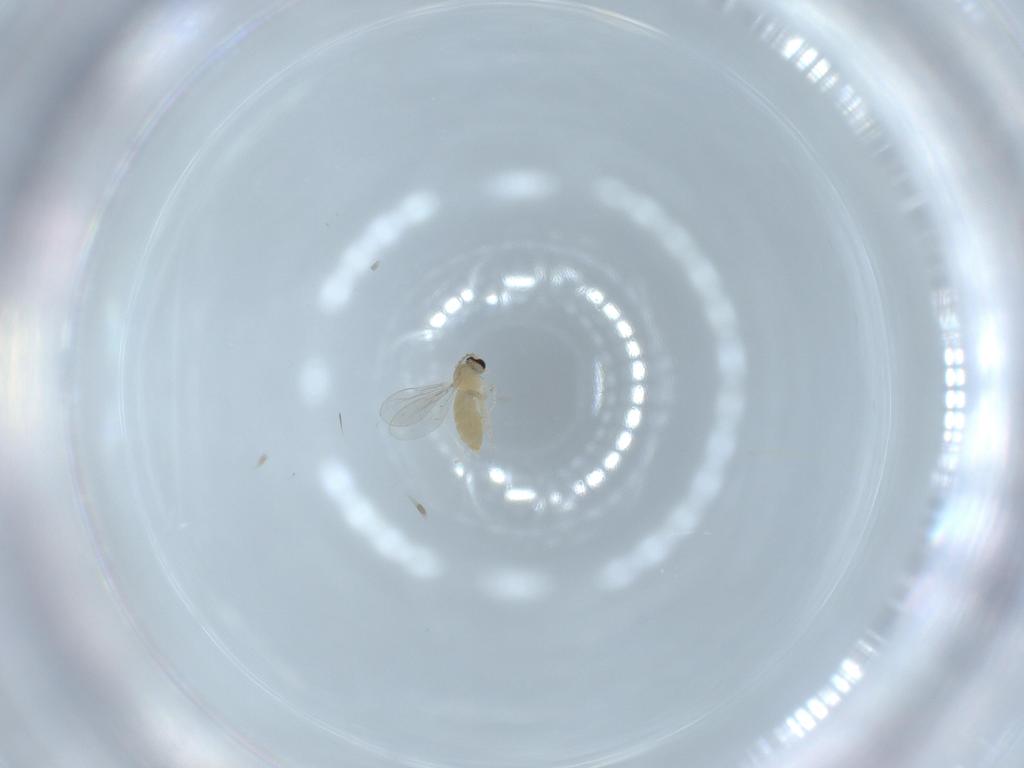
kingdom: Animalia
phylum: Arthropoda
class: Insecta
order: Diptera
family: Cecidomyiidae
